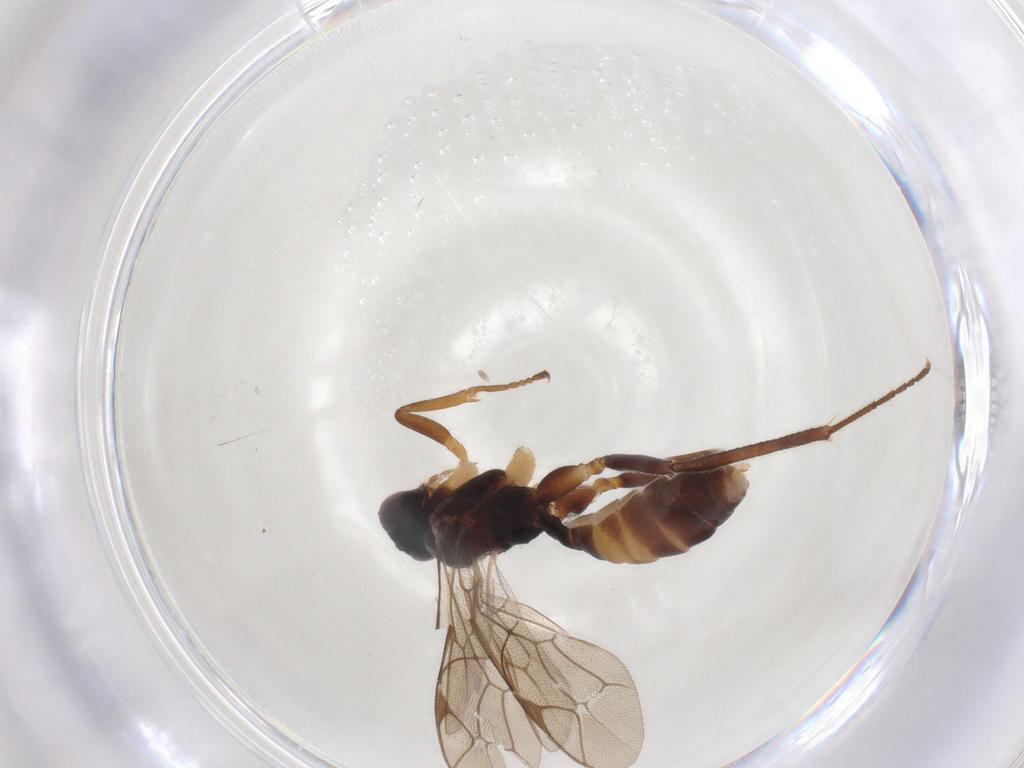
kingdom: Animalia
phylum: Arthropoda
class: Insecta
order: Hymenoptera
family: Ichneumonidae
